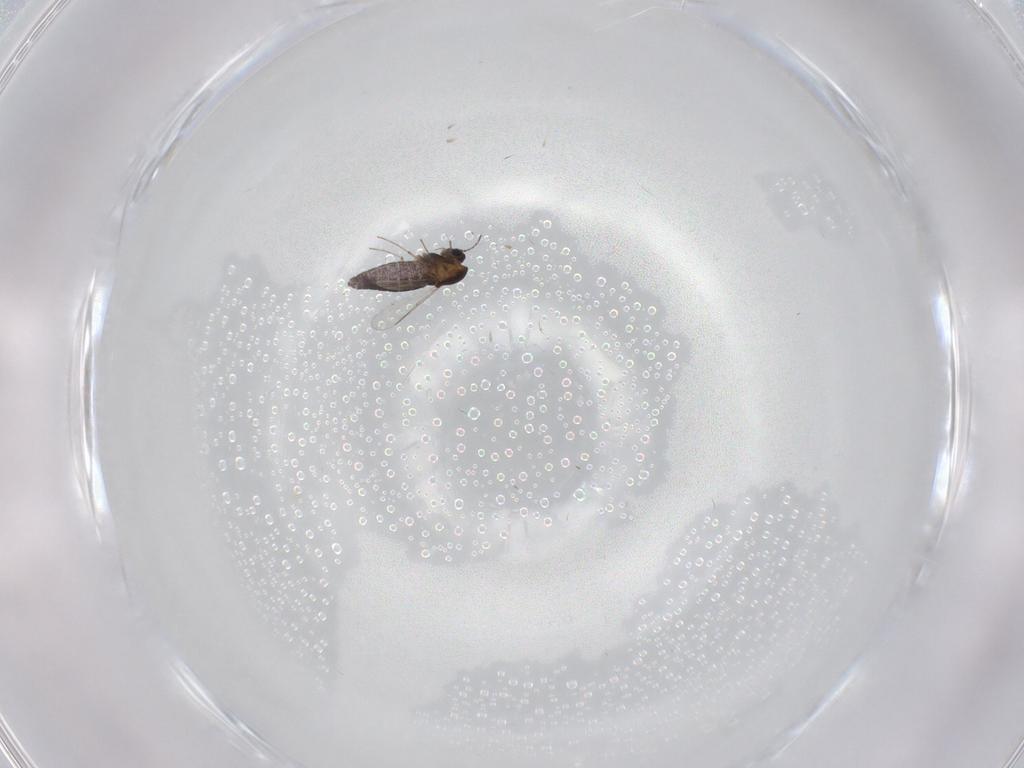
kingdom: Animalia
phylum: Arthropoda
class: Insecta
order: Diptera
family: Chironomidae
